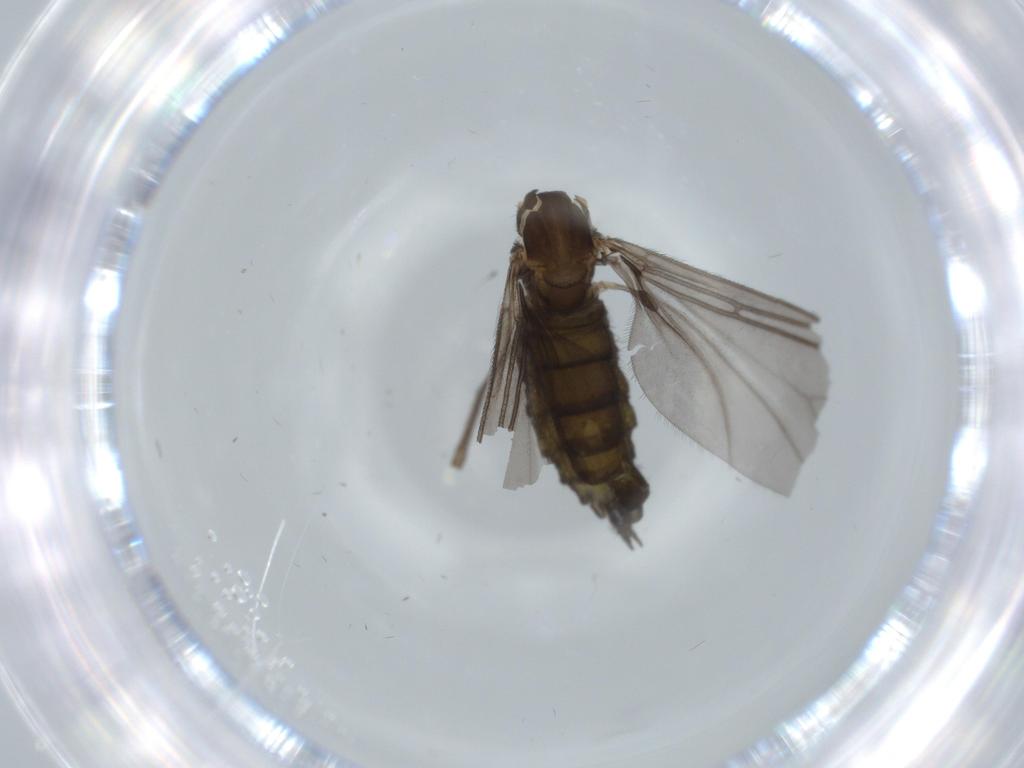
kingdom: Animalia
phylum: Arthropoda
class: Insecta
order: Diptera
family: Sciaridae
